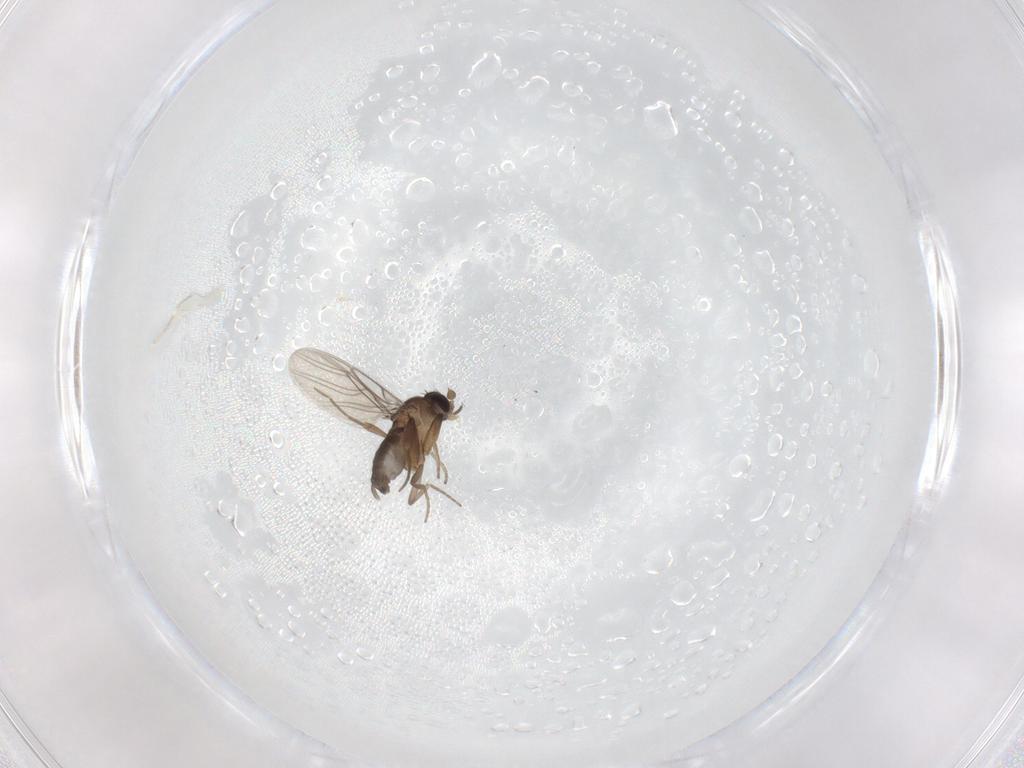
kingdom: Animalia
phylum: Arthropoda
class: Insecta
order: Diptera
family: Phoridae
